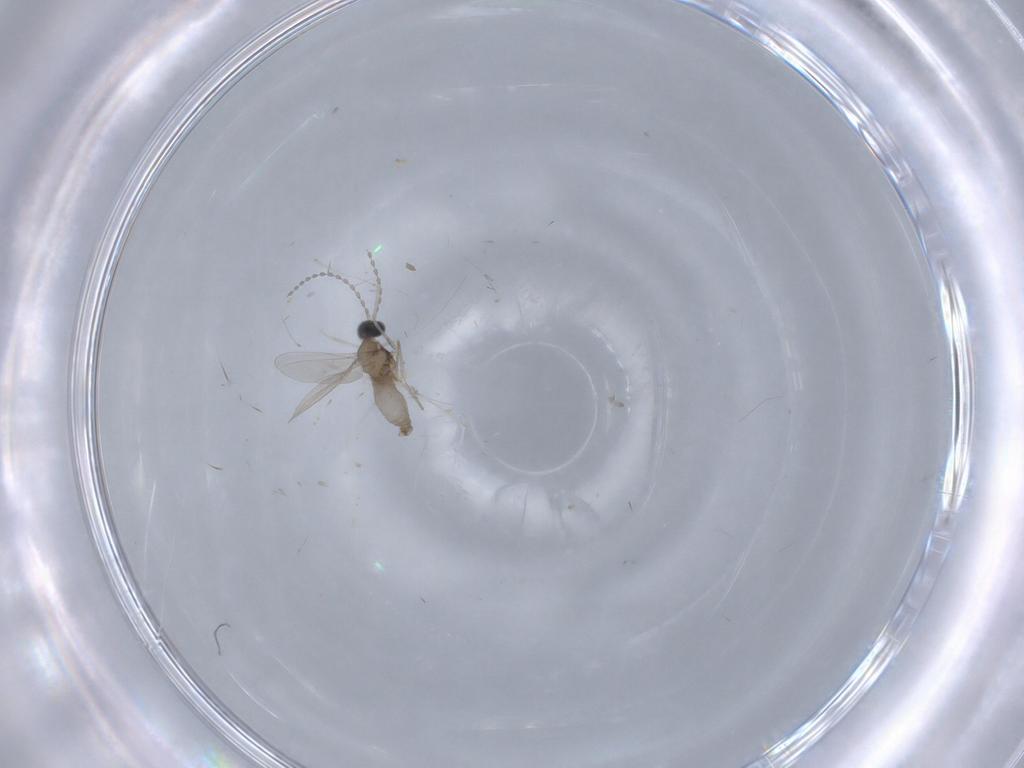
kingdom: Animalia
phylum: Arthropoda
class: Insecta
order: Diptera
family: Cecidomyiidae
